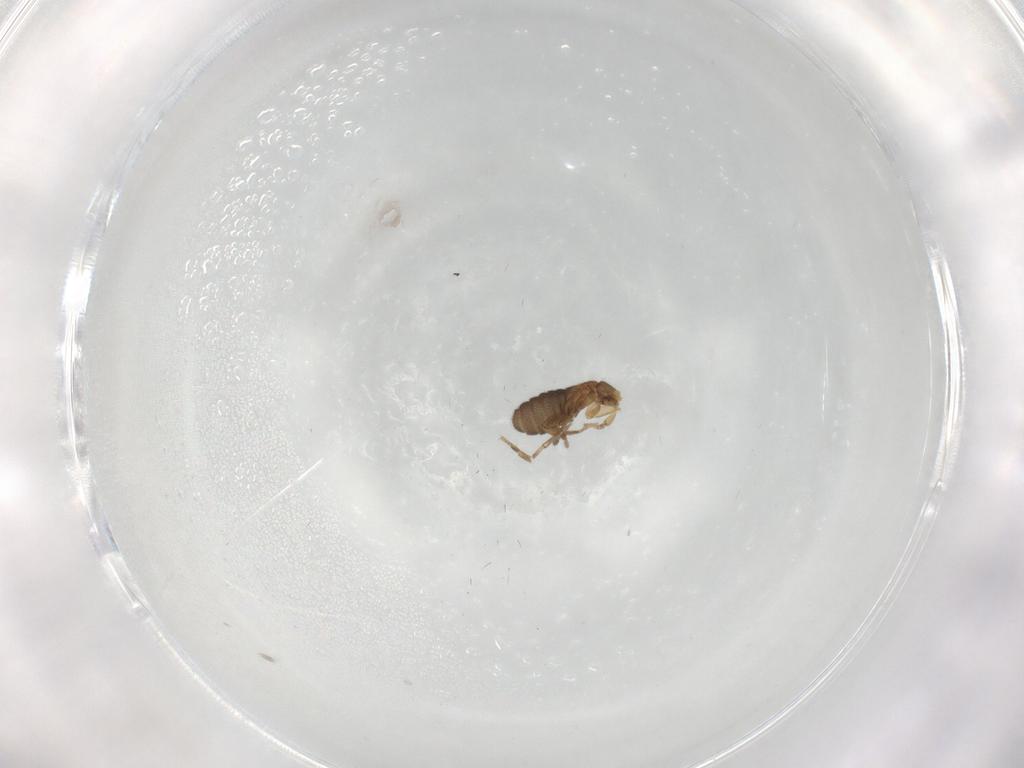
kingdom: Animalia
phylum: Arthropoda
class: Insecta
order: Diptera
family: Phoridae
